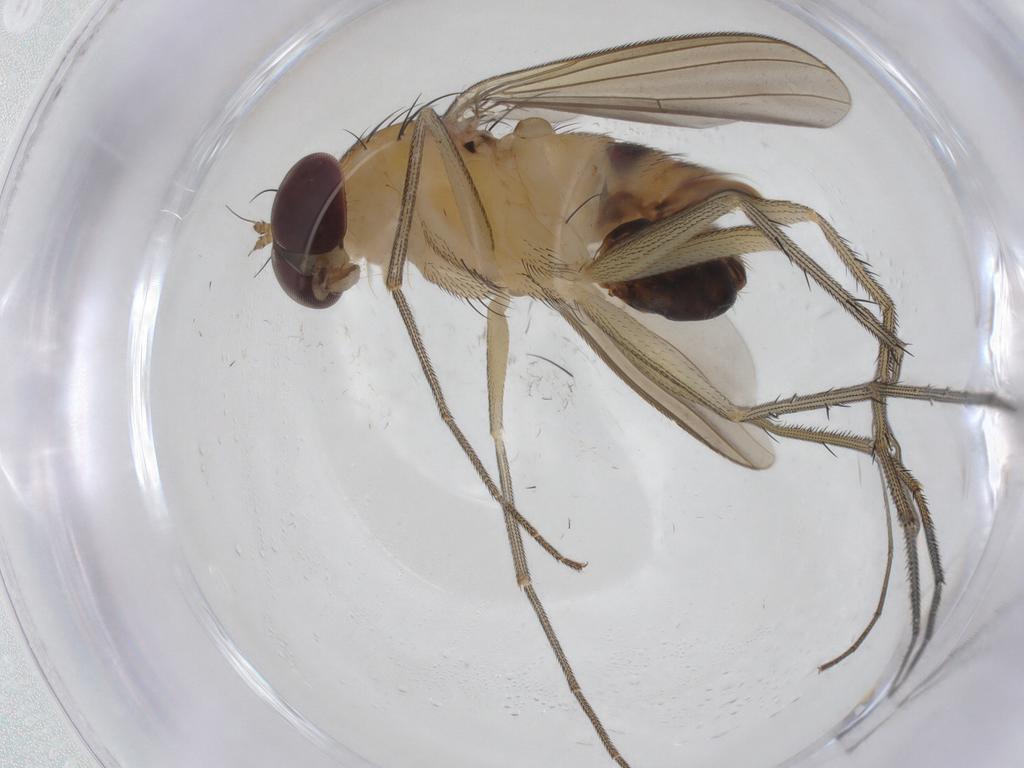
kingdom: Animalia
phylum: Arthropoda
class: Insecta
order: Diptera
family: Dolichopodidae
